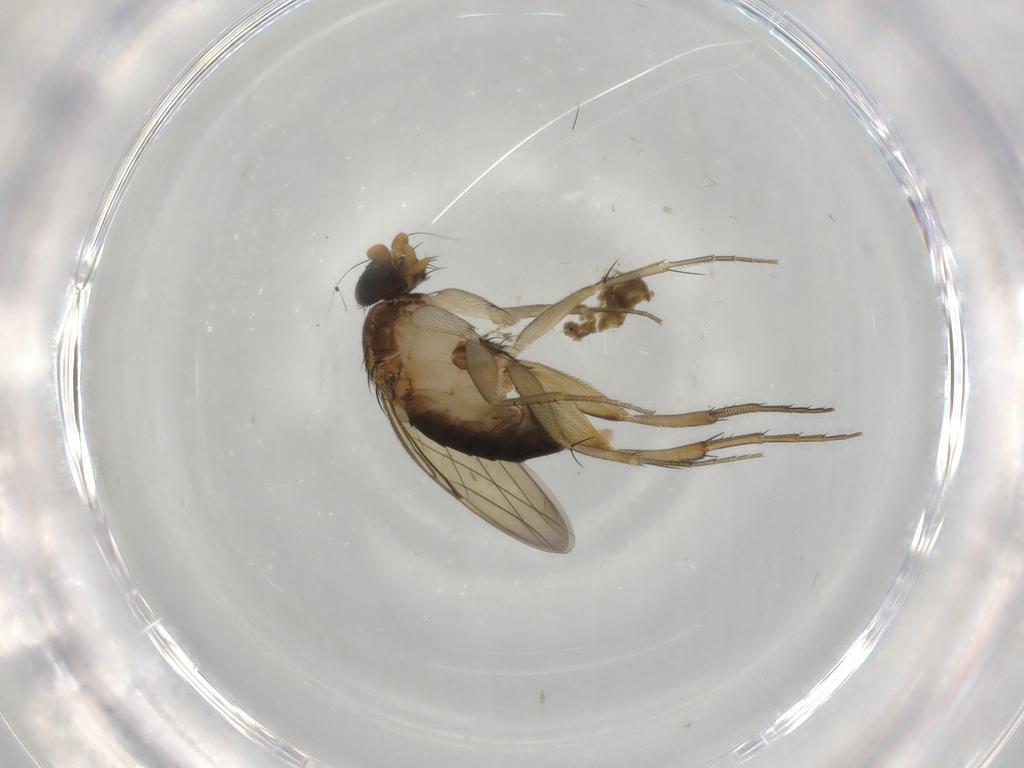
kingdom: Animalia
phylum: Arthropoda
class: Insecta
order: Diptera
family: Phoridae
